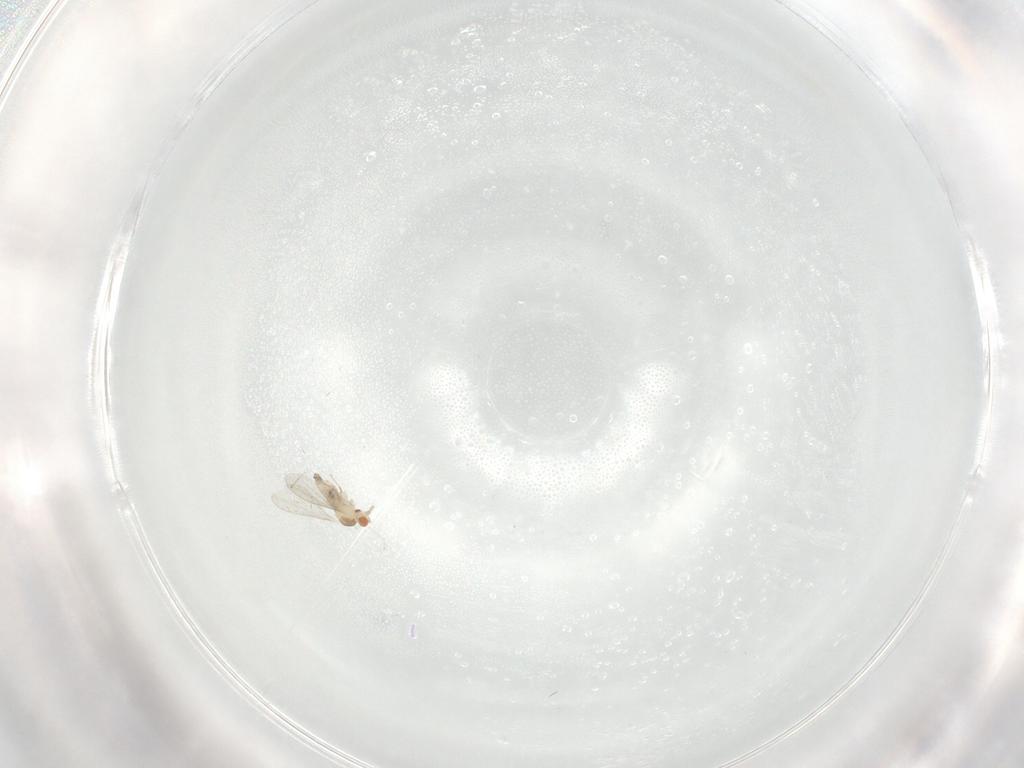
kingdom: Animalia
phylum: Arthropoda
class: Insecta
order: Diptera
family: Cecidomyiidae
